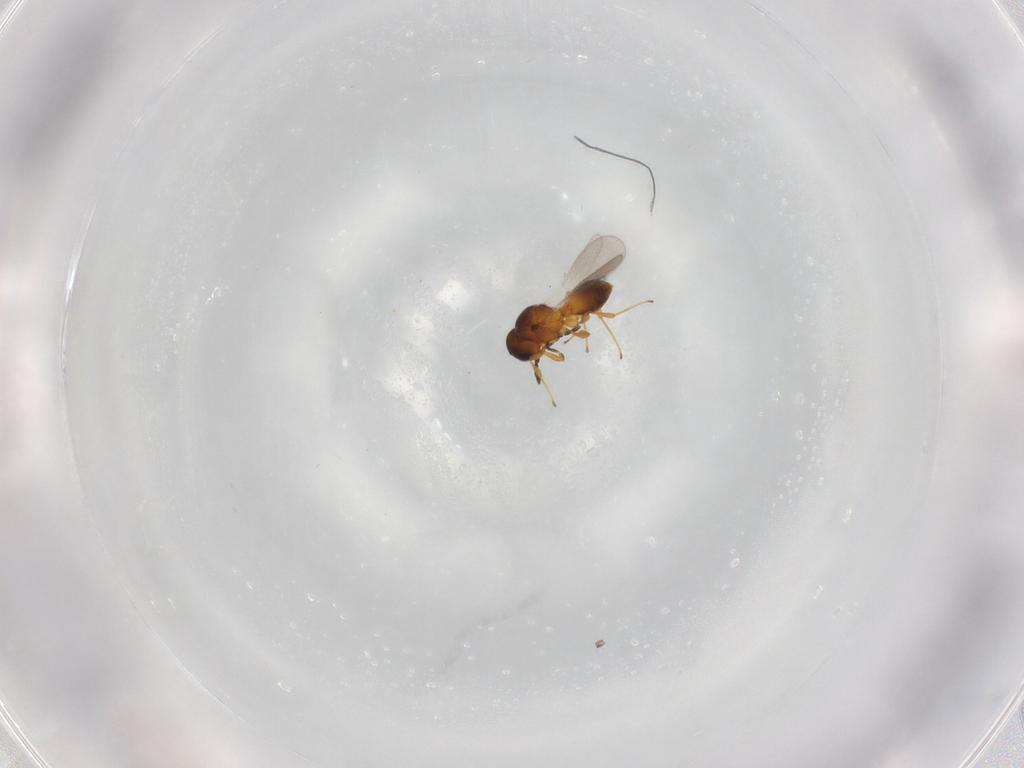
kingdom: Animalia
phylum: Arthropoda
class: Insecta
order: Hymenoptera
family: Platygastridae
